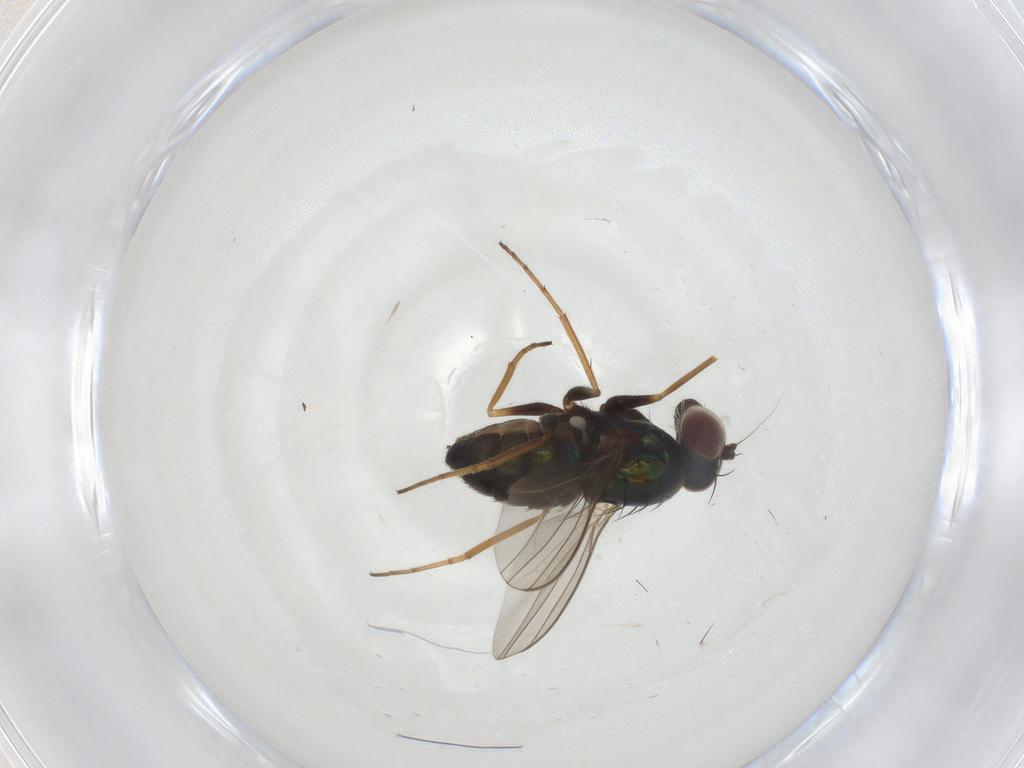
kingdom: Animalia
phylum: Arthropoda
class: Insecta
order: Diptera
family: Dolichopodidae
